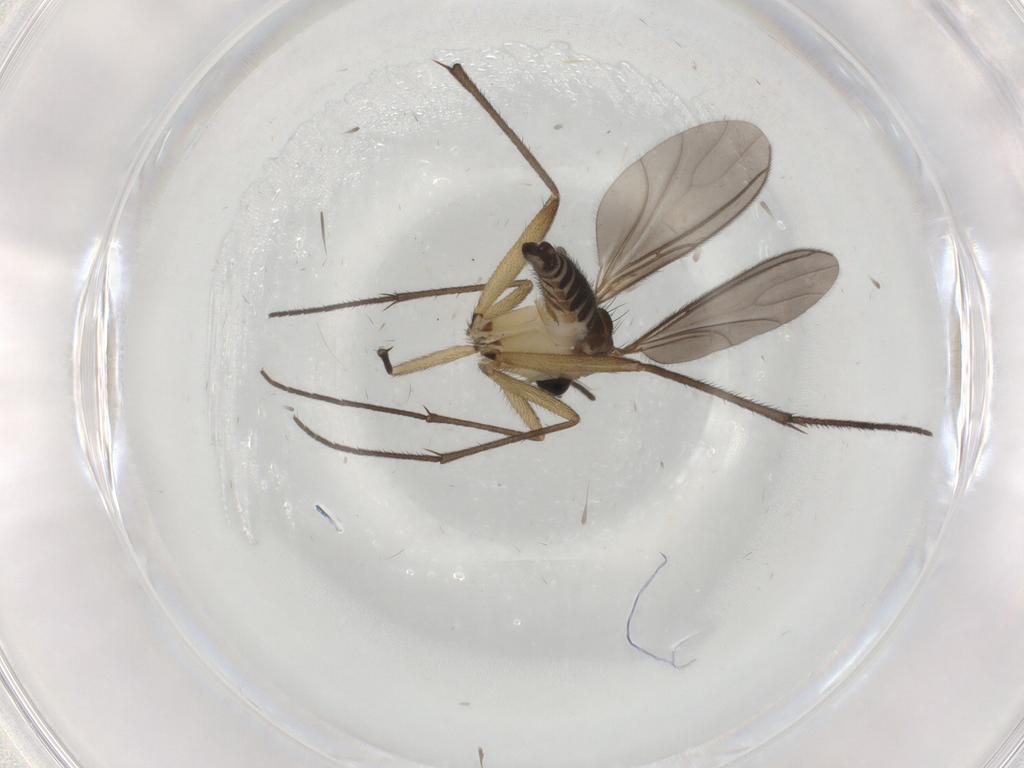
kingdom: Animalia
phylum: Arthropoda
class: Insecta
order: Diptera
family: Sciaridae
